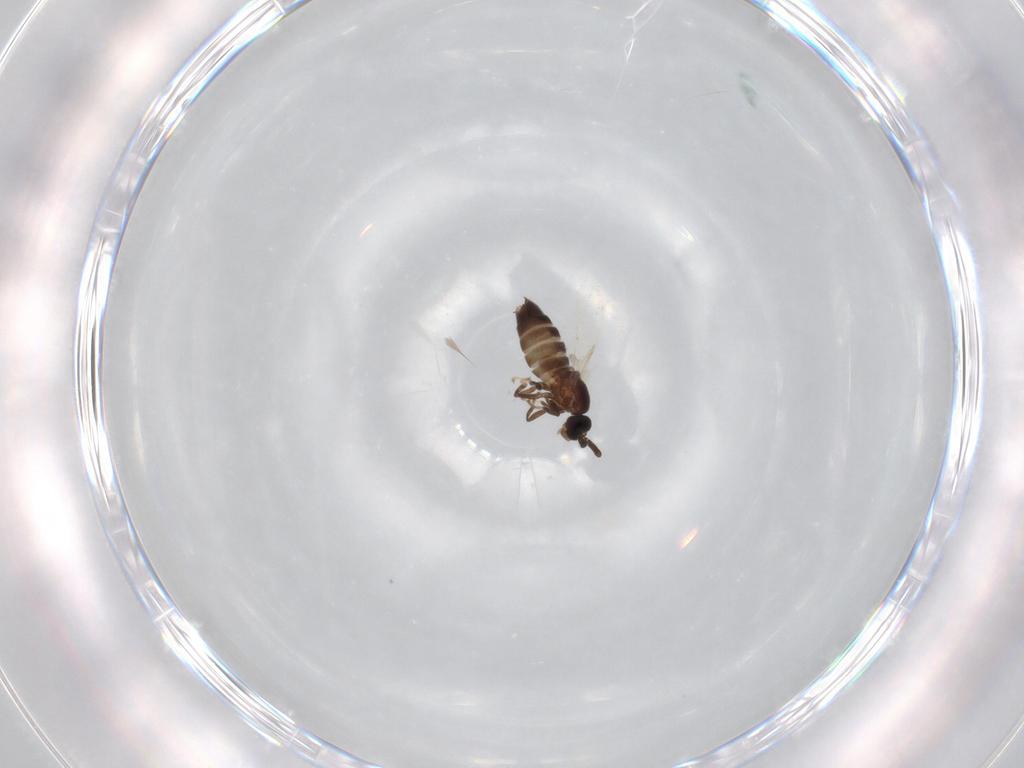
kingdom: Animalia
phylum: Arthropoda
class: Insecta
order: Diptera
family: Scatopsidae
